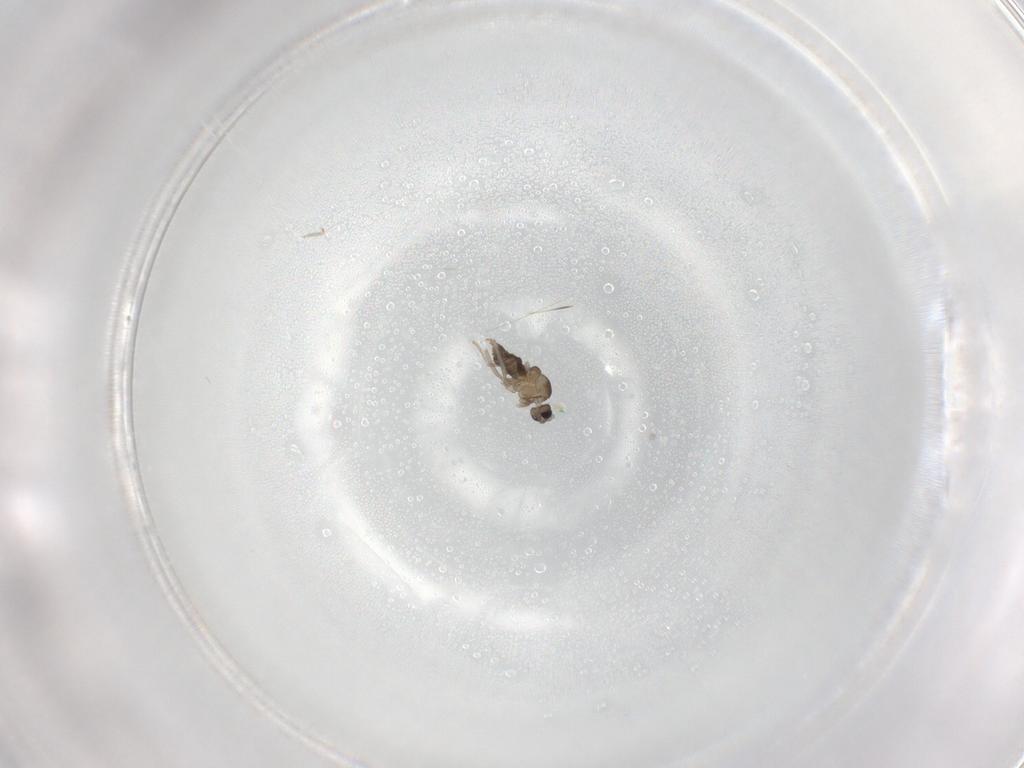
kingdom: Animalia
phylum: Arthropoda
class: Insecta
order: Diptera
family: Cecidomyiidae
